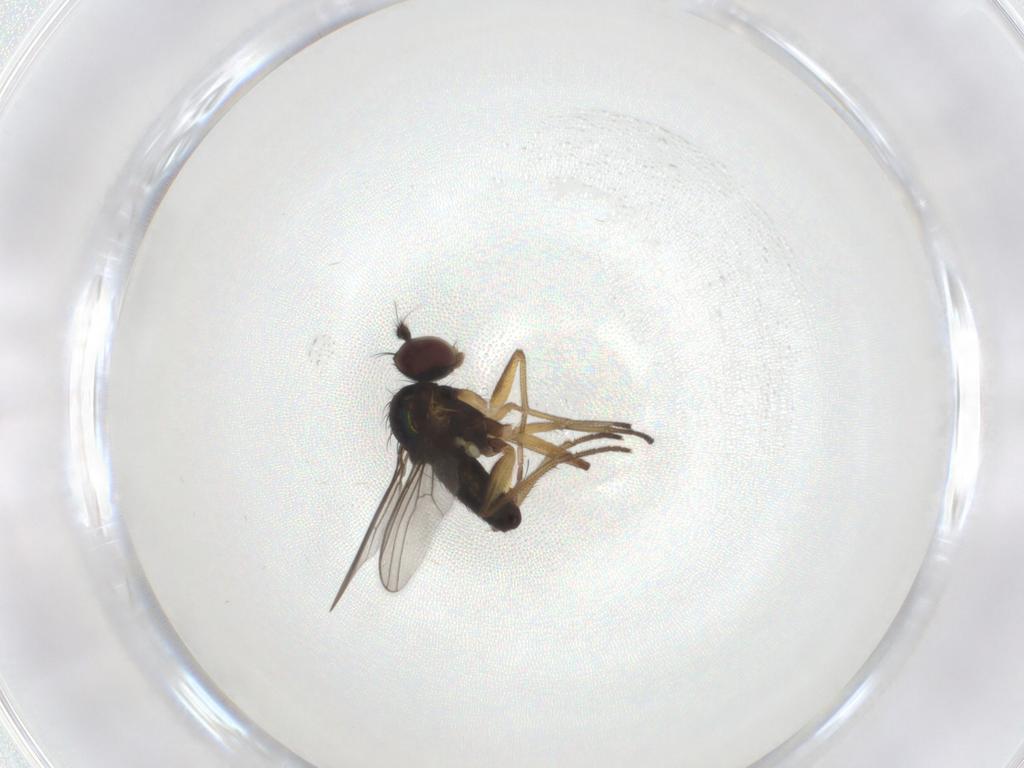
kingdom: Animalia
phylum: Arthropoda
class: Insecta
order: Diptera
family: Dolichopodidae
